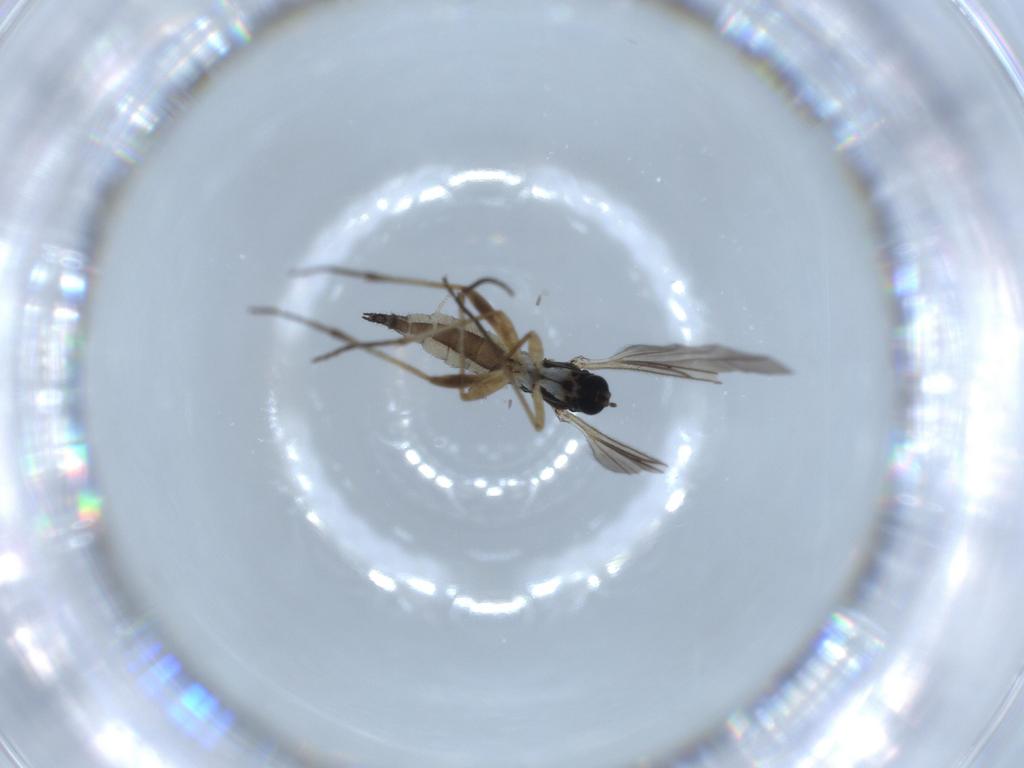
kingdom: Animalia
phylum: Arthropoda
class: Insecta
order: Diptera
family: Sciaridae
